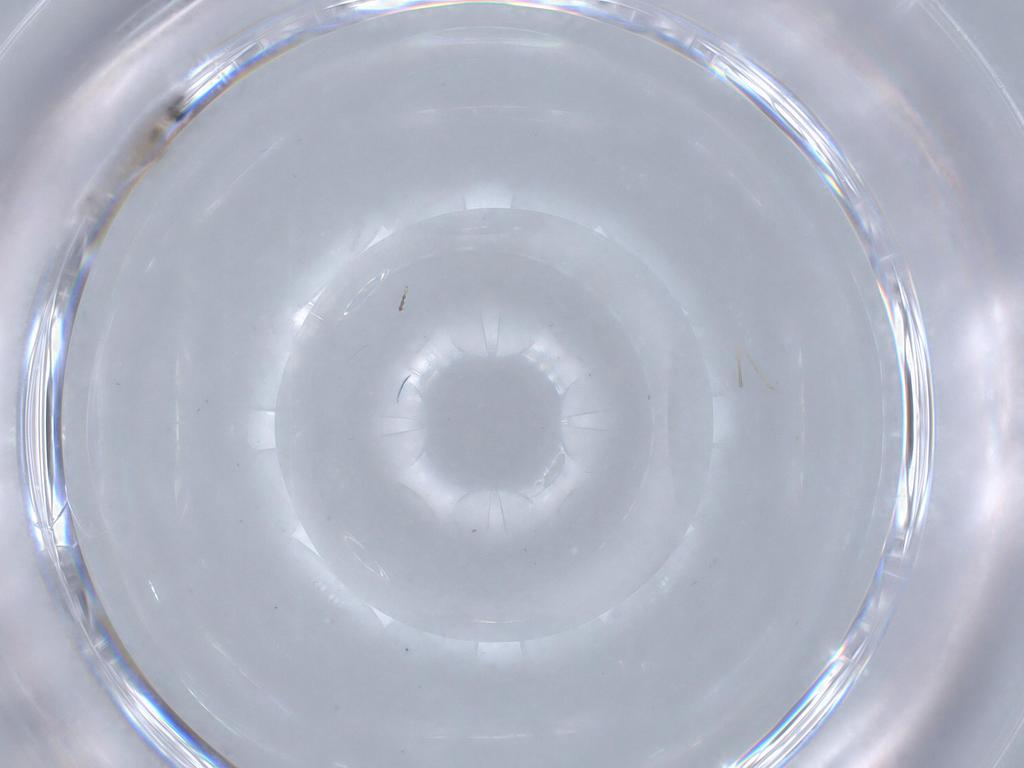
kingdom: Animalia
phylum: Arthropoda
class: Insecta
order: Diptera
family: Cecidomyiidae
